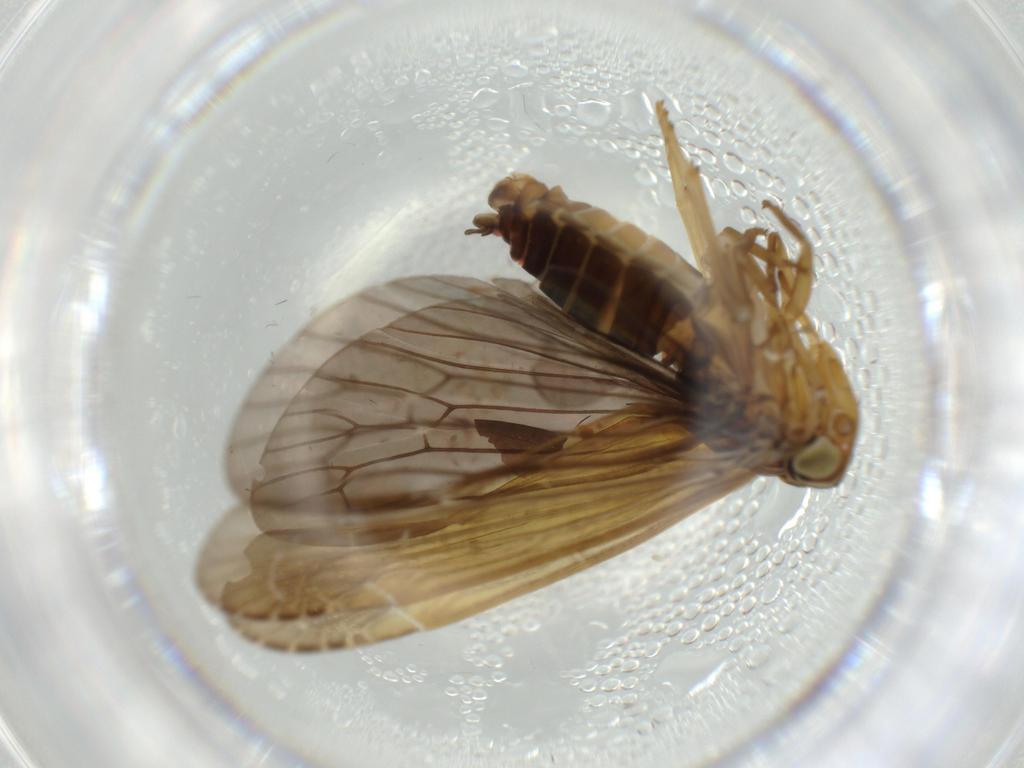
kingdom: Animalia
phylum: Arthropoda
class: Insecta
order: Hemiptera
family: Achilidae
